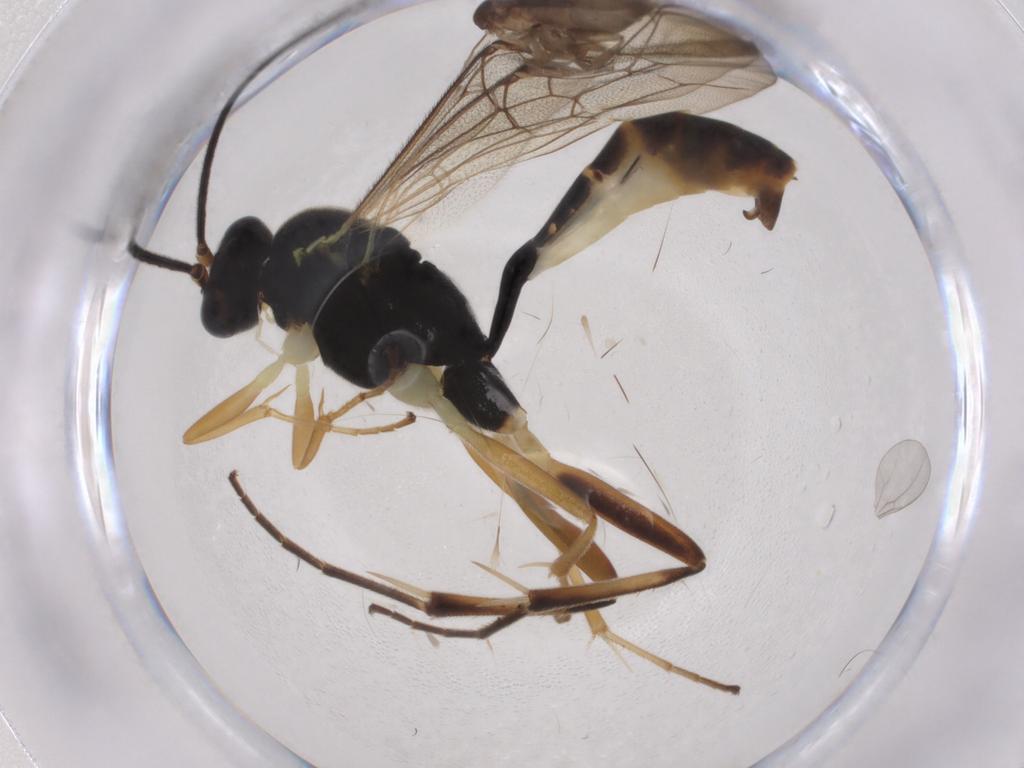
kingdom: Animalia
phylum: Arthropoda
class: Insecta
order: Hymenoptera
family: Ichneumonidae
